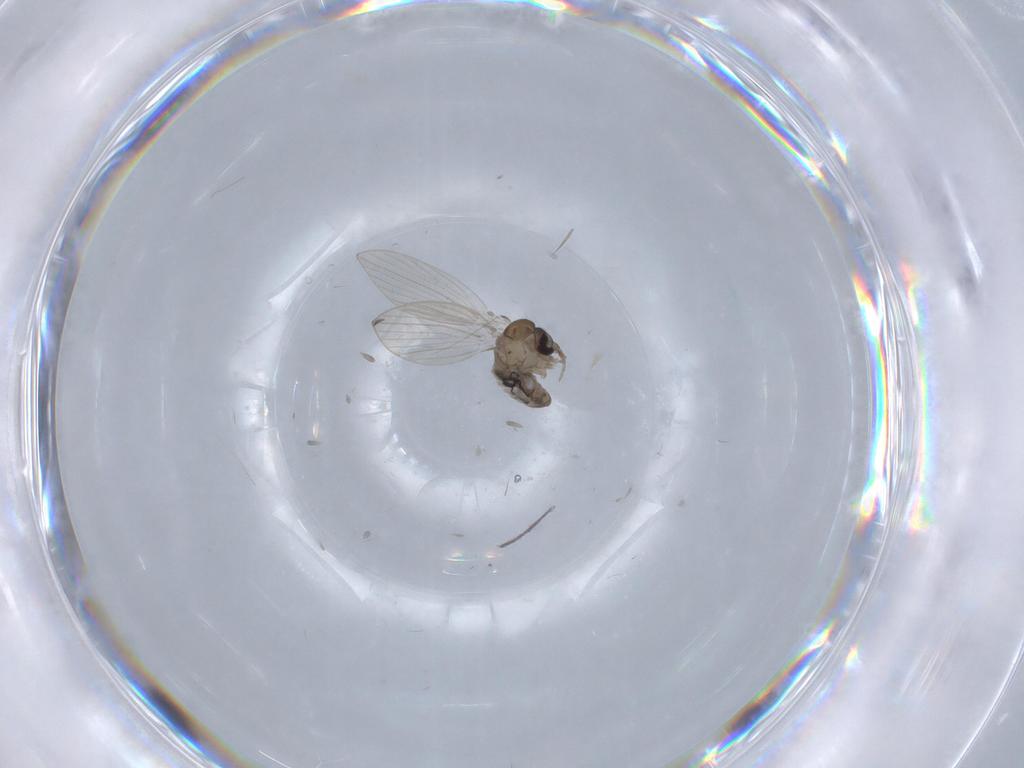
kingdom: Animalia
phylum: Arthropoda
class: Insecta
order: Diptera
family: Psychodidae
